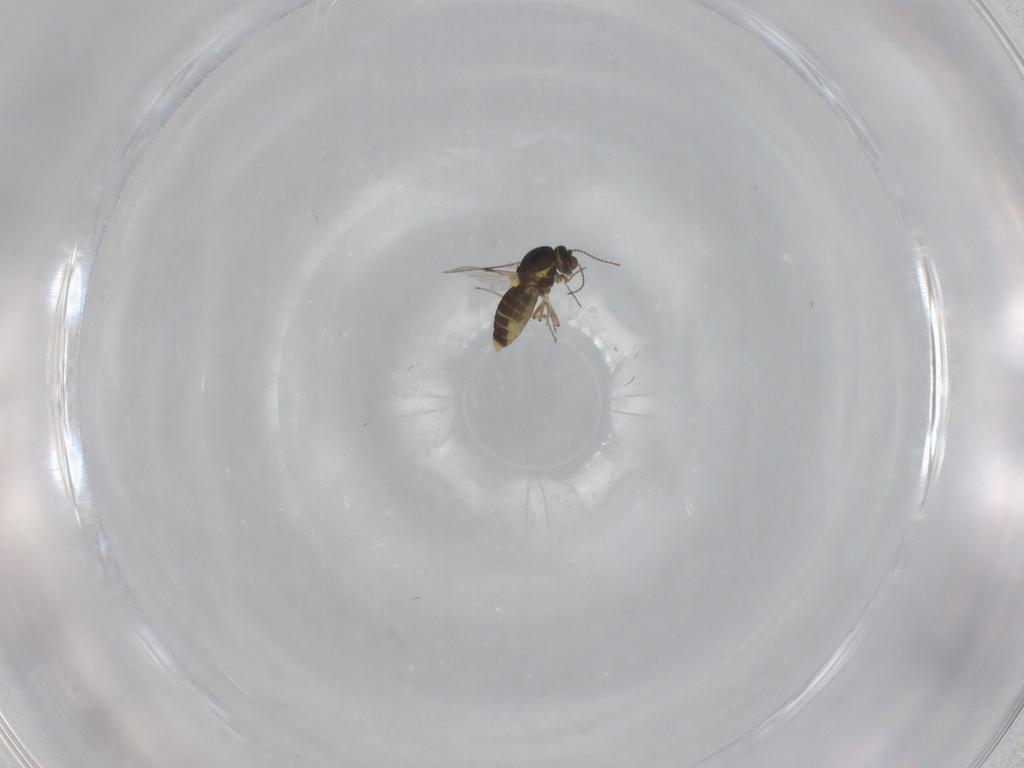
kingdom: Animalia
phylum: Arthropoda
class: Insecta
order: Diptera
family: Ceratopogonidae
